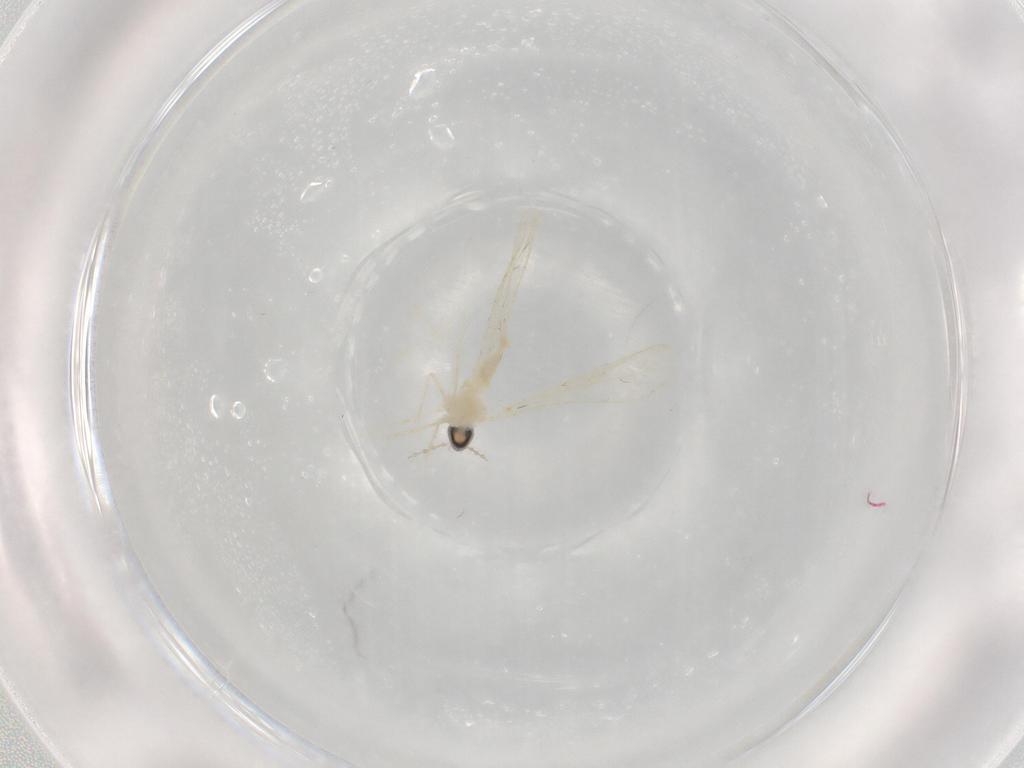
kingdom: Animalia
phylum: Arthropoda
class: Insecta
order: Diptera
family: Cecidomyiidae
